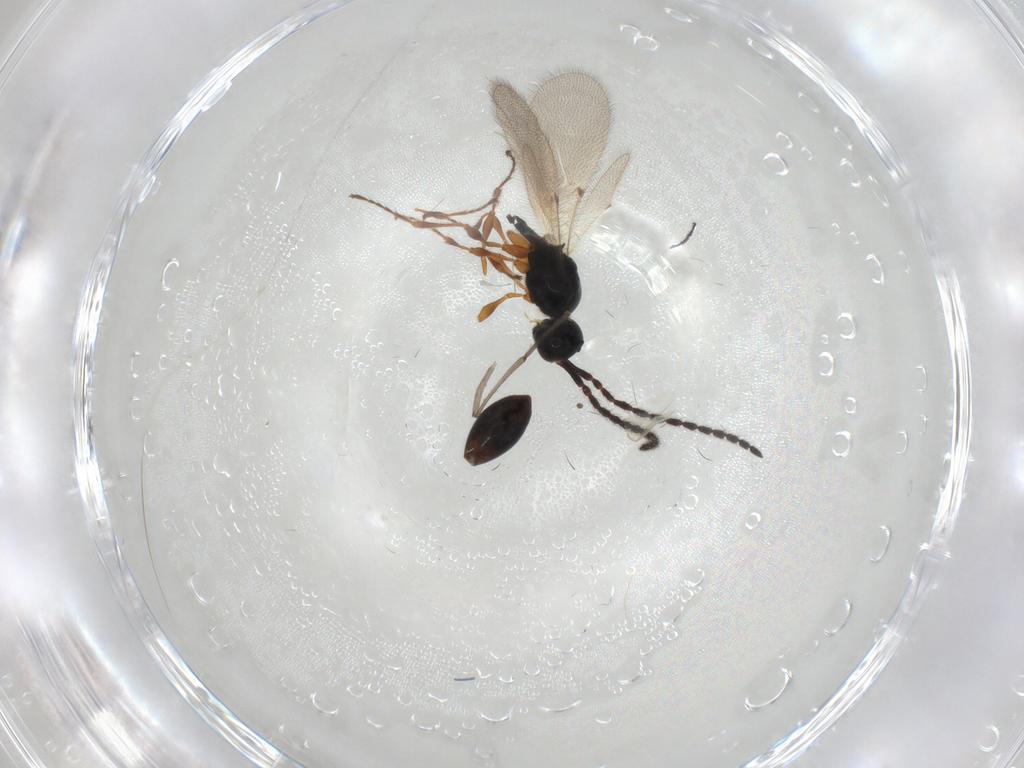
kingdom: Animalia
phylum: Arthropoda
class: Insecta
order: Hymenoptera
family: Diapriidae
